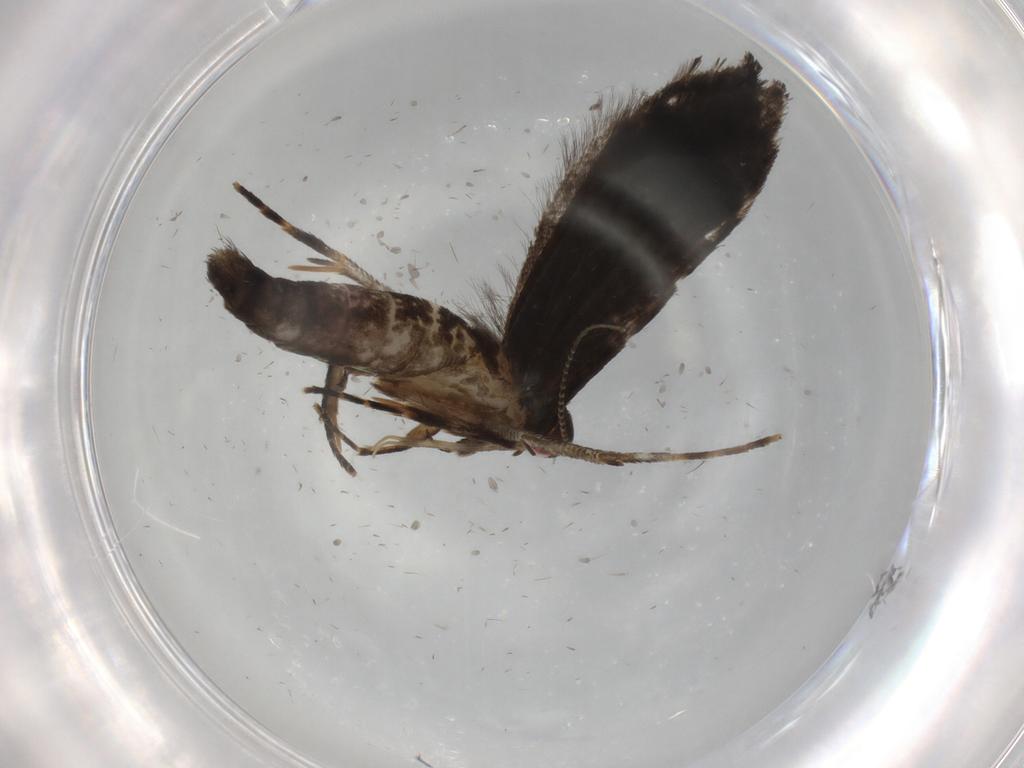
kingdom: Animalia
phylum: Arthropoda
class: Insecta
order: Lepidoptera
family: Gelechiidae
